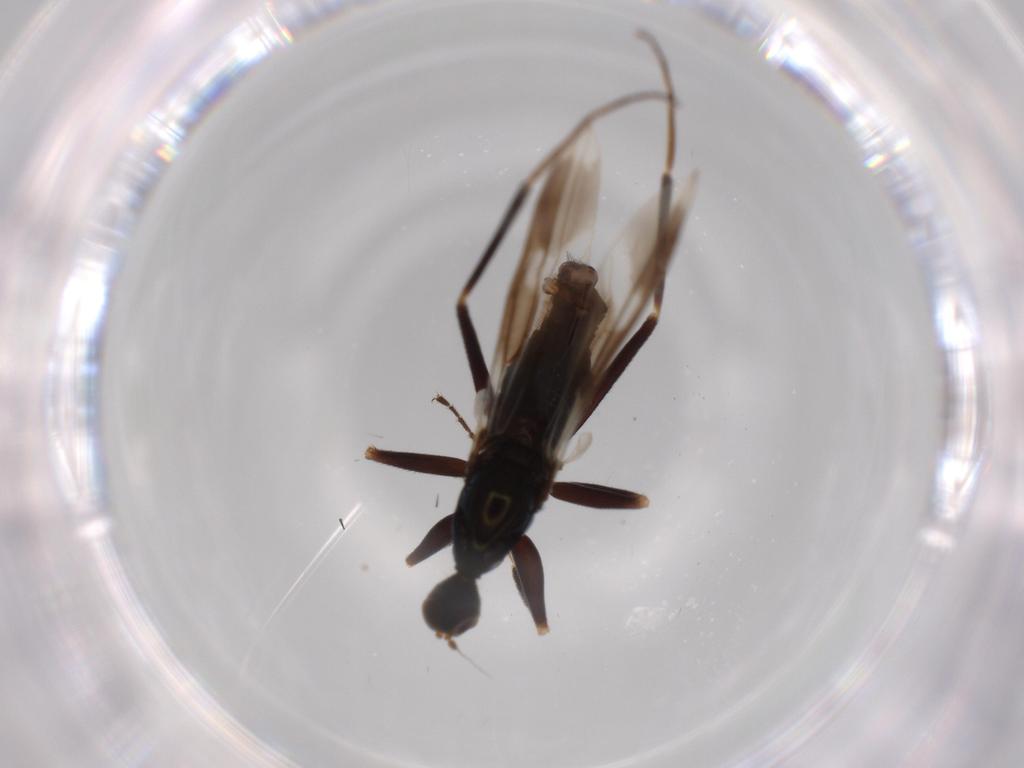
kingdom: Animalia
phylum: Arthropoda
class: Insecta
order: Diptera
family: Hybotidae
